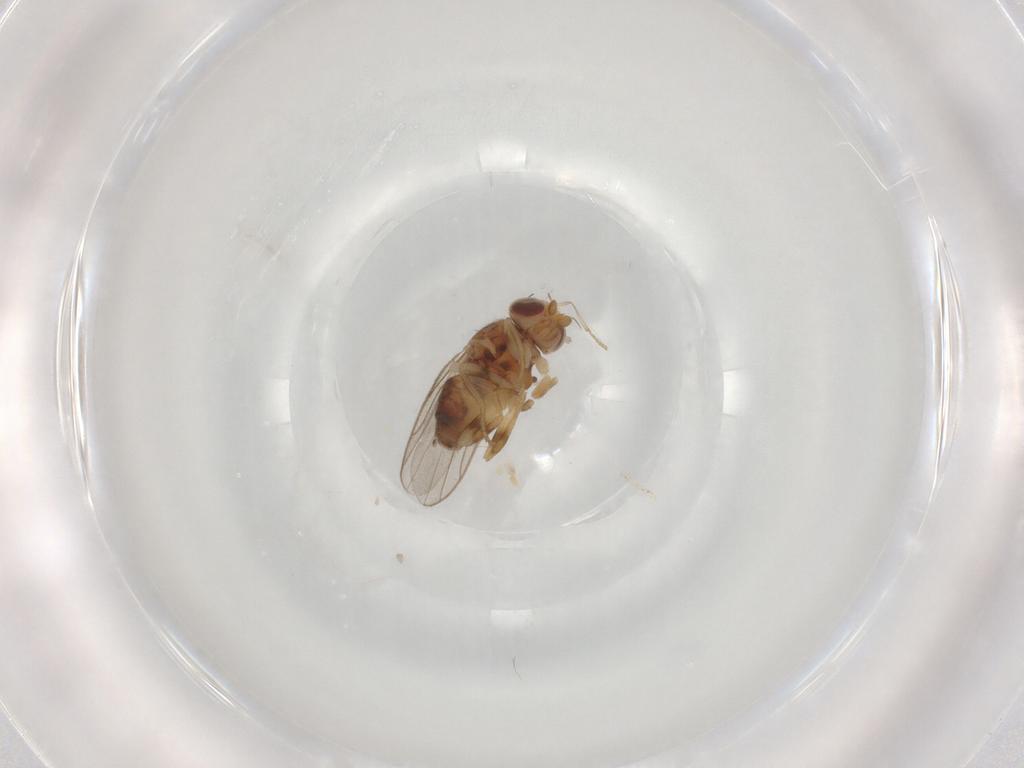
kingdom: Animalia
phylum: Arthropoda
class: Insecta
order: Diptera
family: Chloropidae
